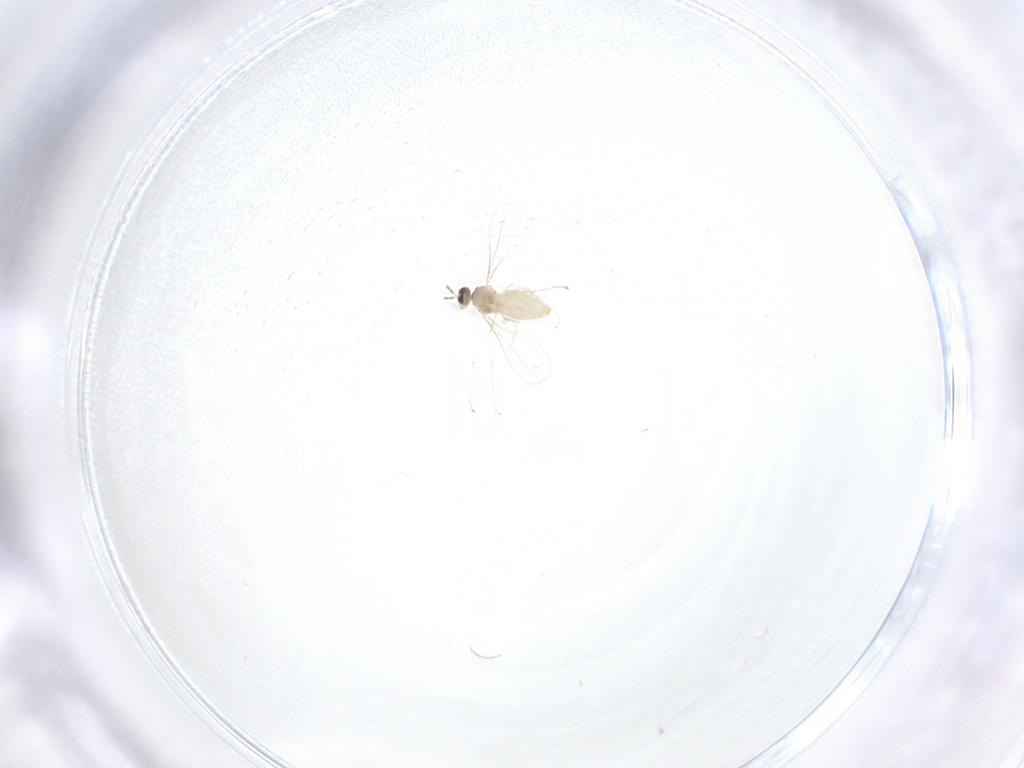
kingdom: Animalia
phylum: Arthropoda
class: Insecta
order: Diptera
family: Cecidomyiidae
